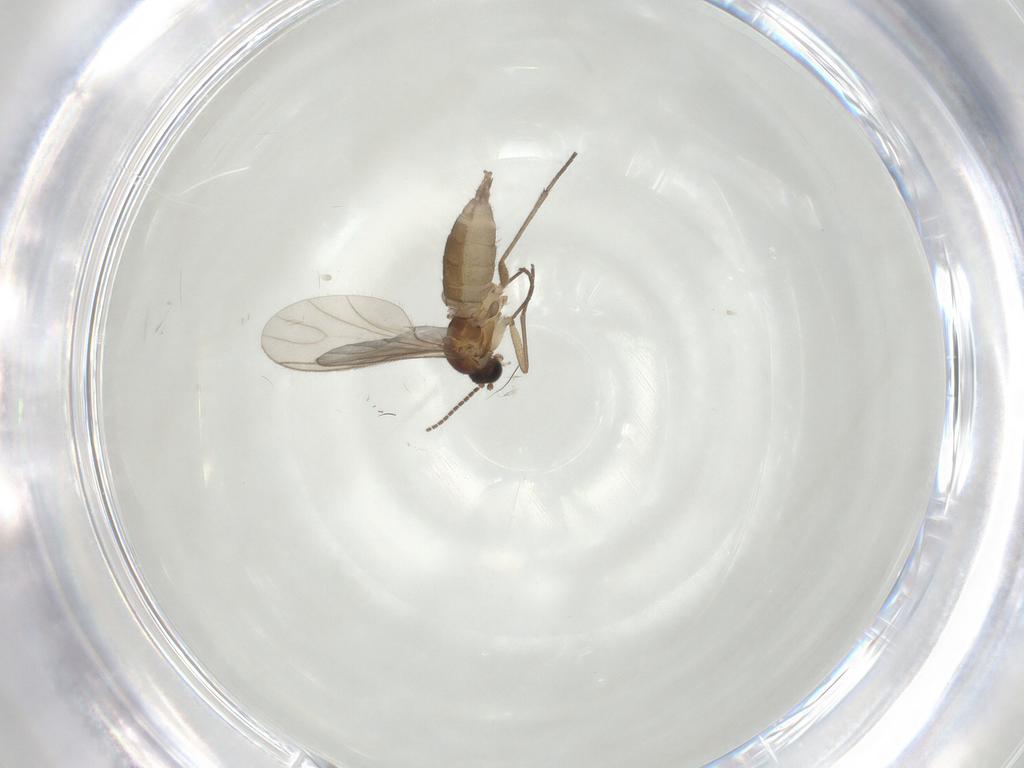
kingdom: Animalia
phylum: Arthropoda
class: Insecta
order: Diptera
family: Sciaridae
